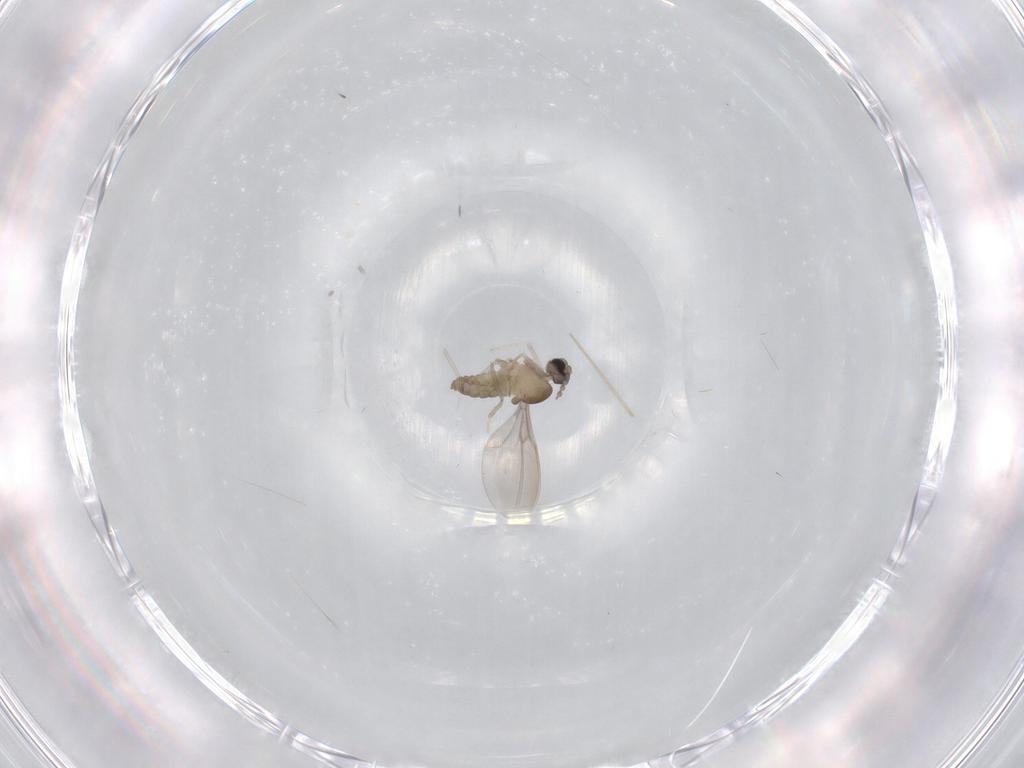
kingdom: Animalia
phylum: Arthropoda
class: Insecta
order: Diptera
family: Cecidomyiidae
